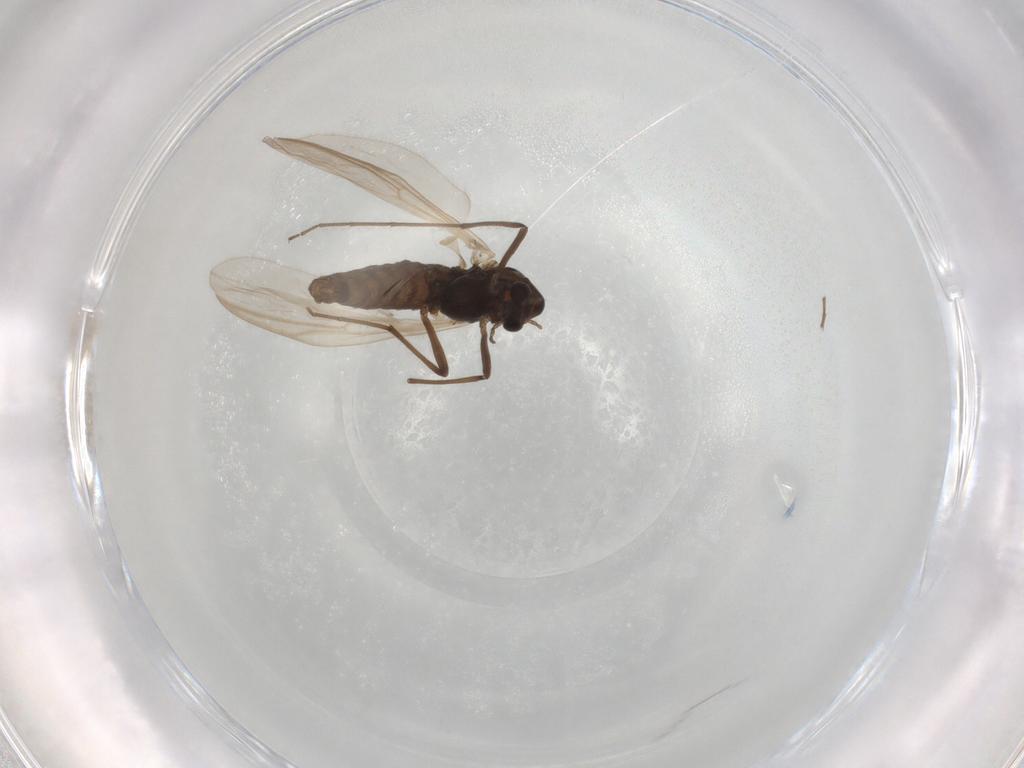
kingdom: Animalia
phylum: Arthropoda
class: Insecta
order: Diptera
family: Chironomidae
